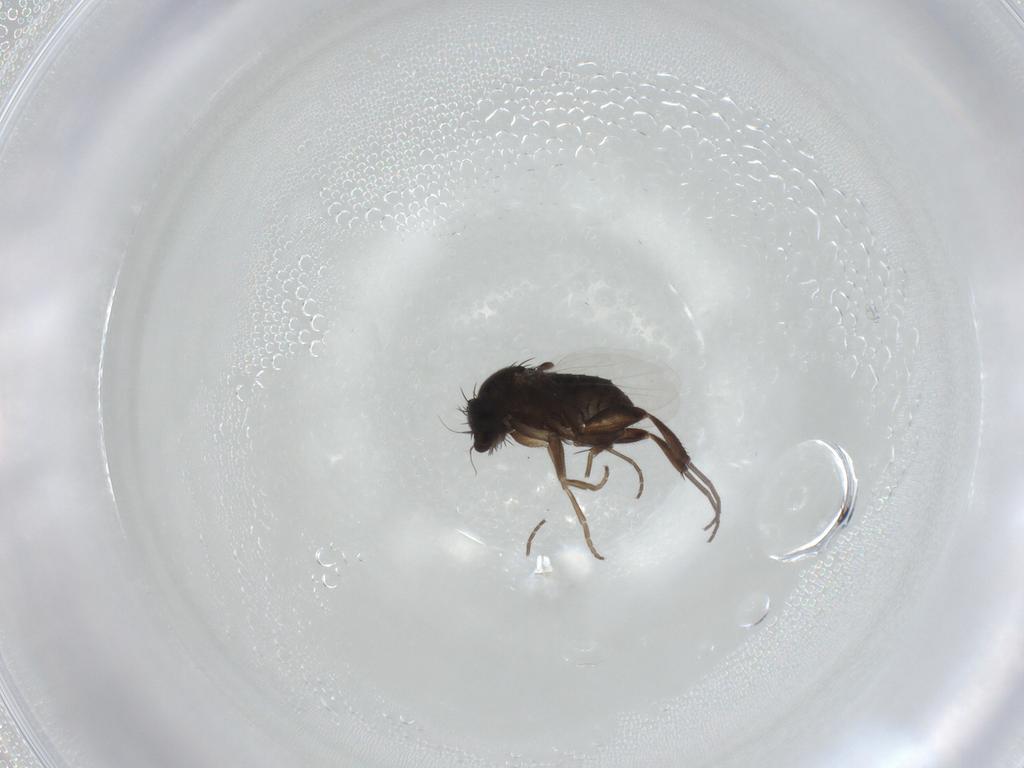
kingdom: Animalia
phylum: Arthropoda
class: Insecta
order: Diptera
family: Phoridae
